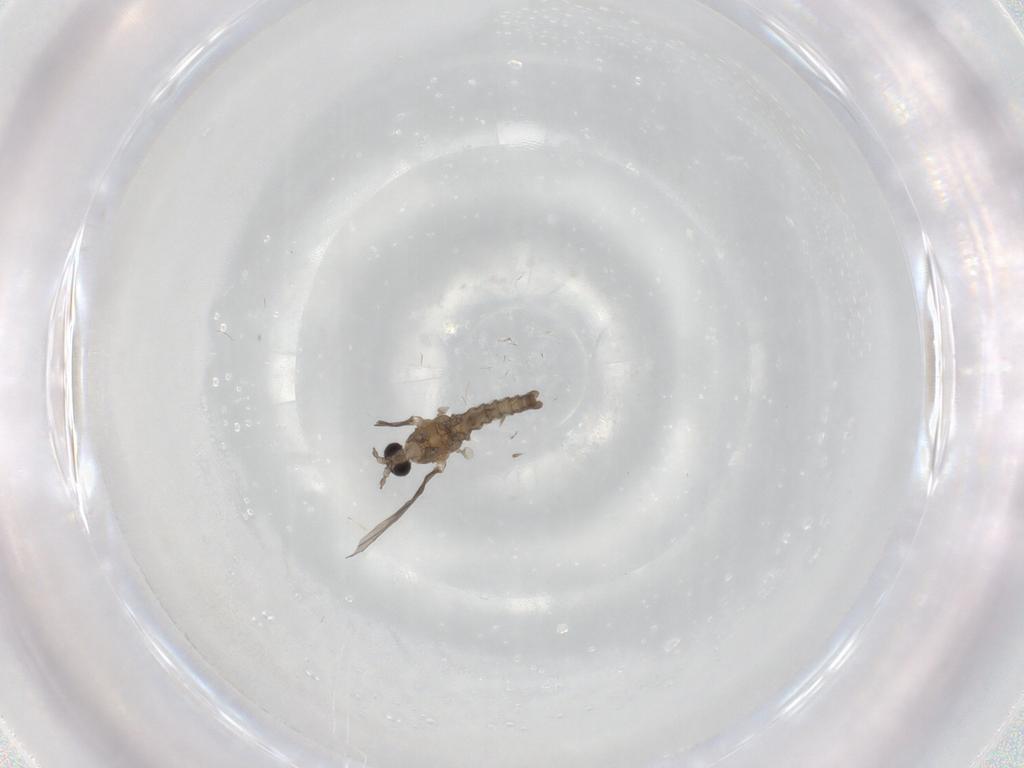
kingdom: Animalia
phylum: Arthropoda
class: Insecta
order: Diptera
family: Cecidomyiidae
